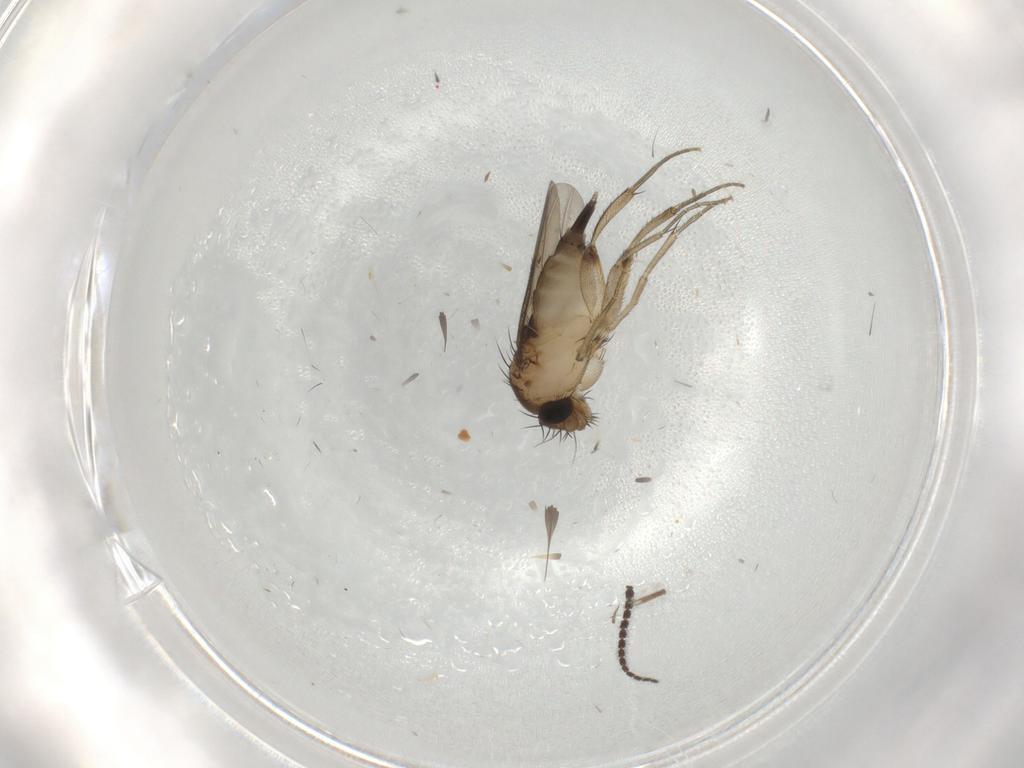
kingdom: Animalia
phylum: Arthropoda
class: Insecta
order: Diptera
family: Sciaridae
